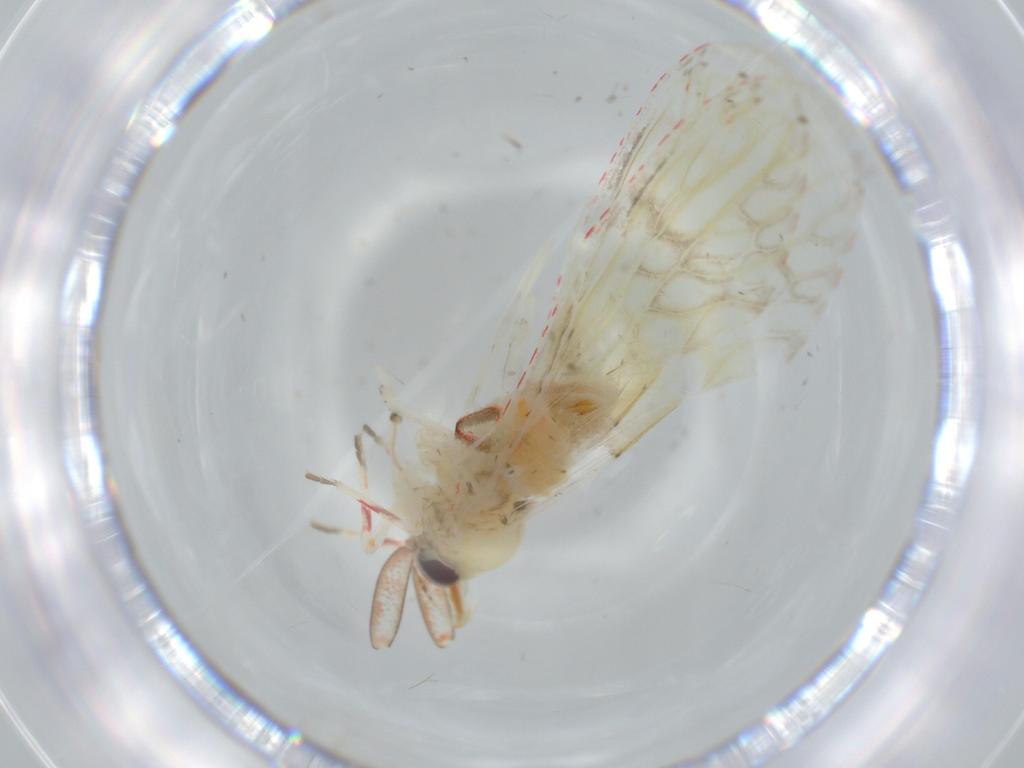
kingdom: Animalia
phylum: Arthropoda
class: Insecta
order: Hemiptera
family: Derbidae
